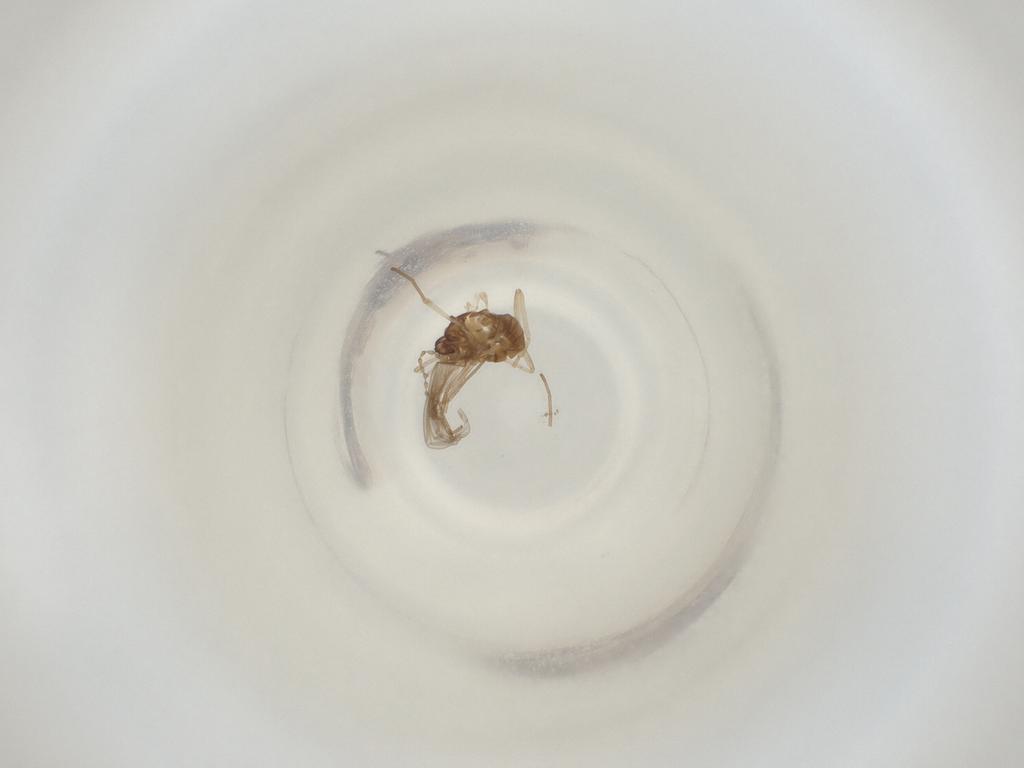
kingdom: Animalia
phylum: Arthropoda
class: Insecta
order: Diptera
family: Cecidomyiidae
